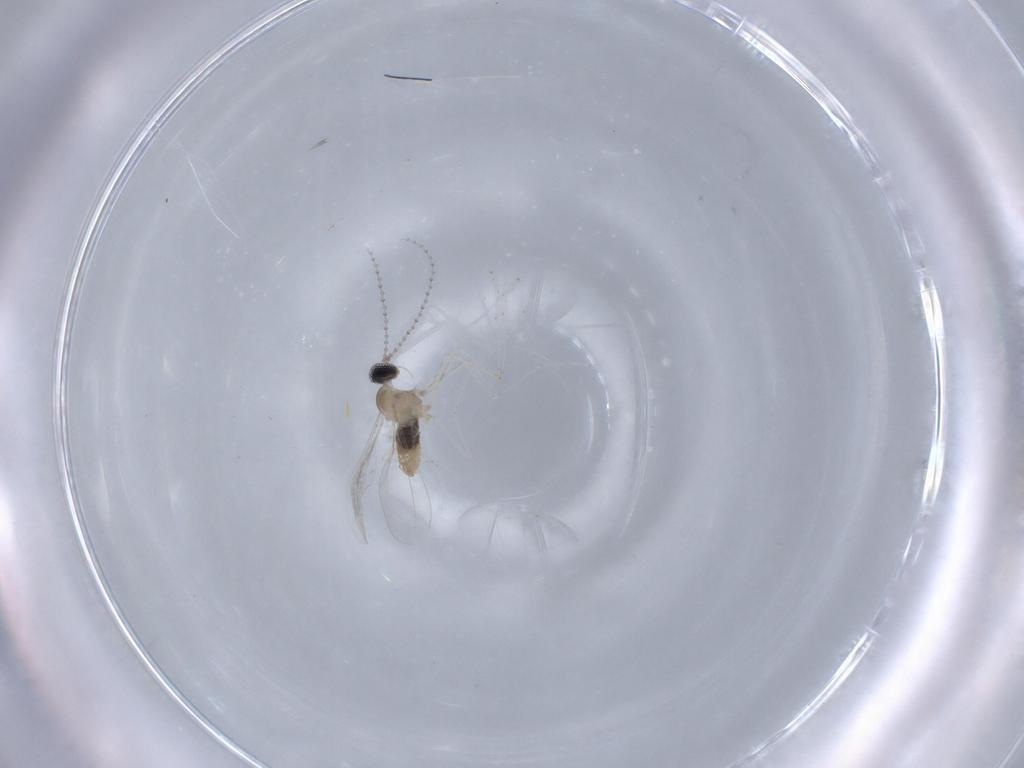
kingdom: Animalia
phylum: Arthropoda
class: Insecta
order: Diptera
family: Cecidomyiidae
